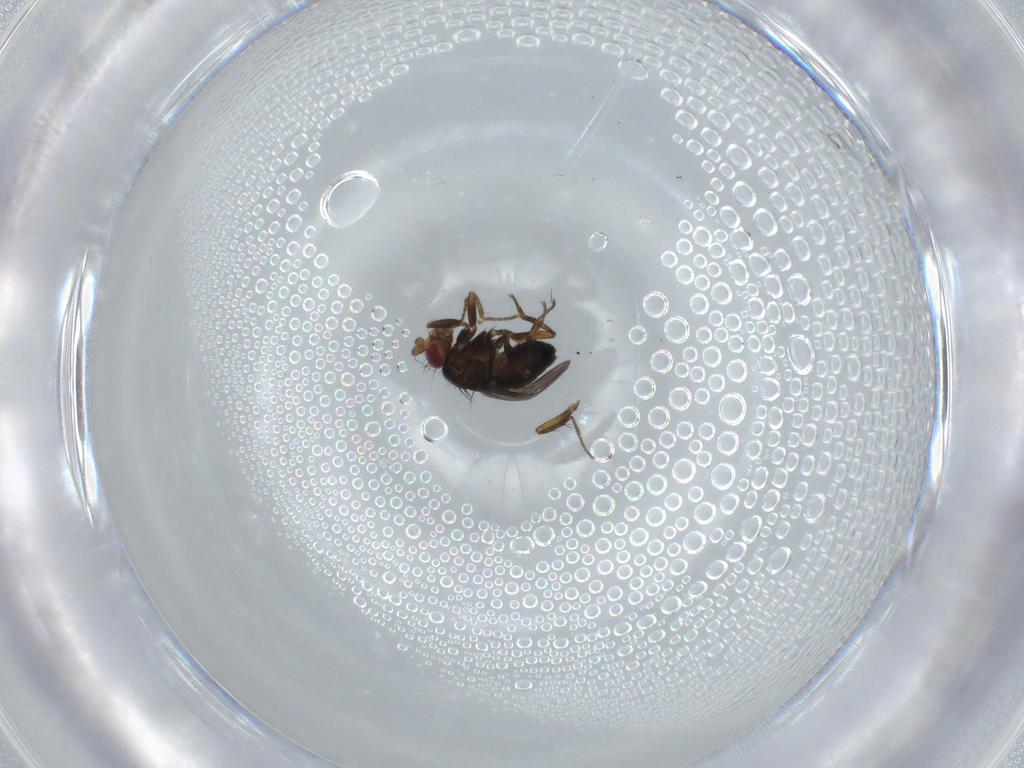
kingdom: Animalia
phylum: Arthropoda
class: Insecta
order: Diptera
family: Sphaeroceridae
